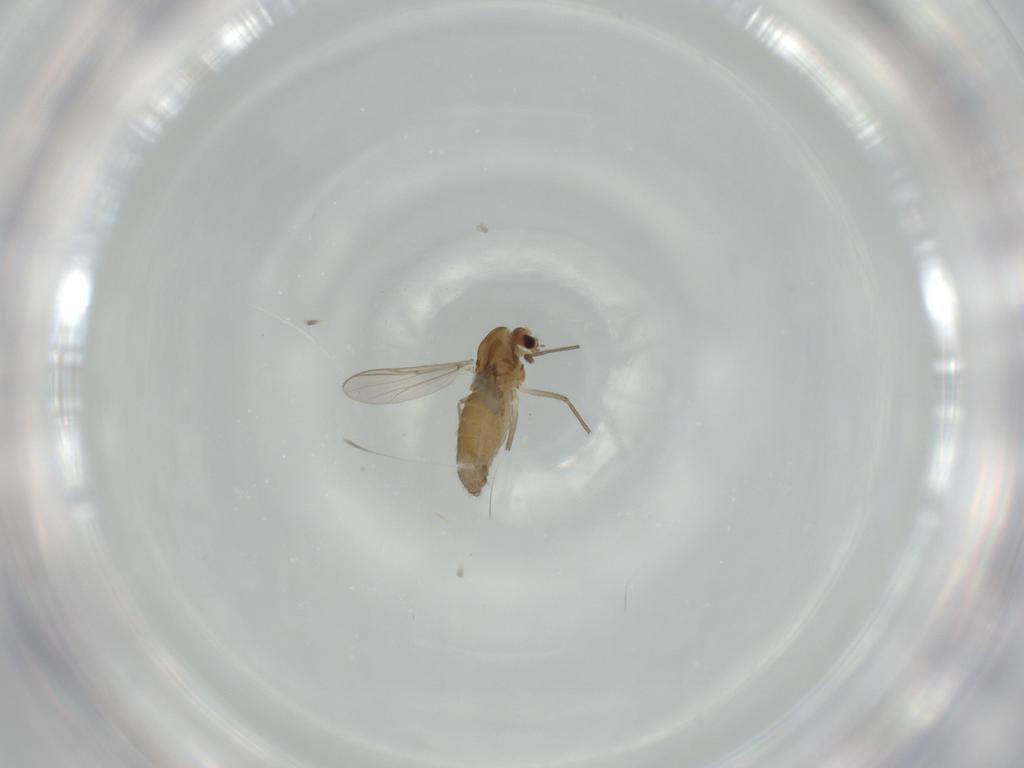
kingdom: Animalia
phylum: Arthropoda
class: Insecta
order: Diptera
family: Chironomidae
